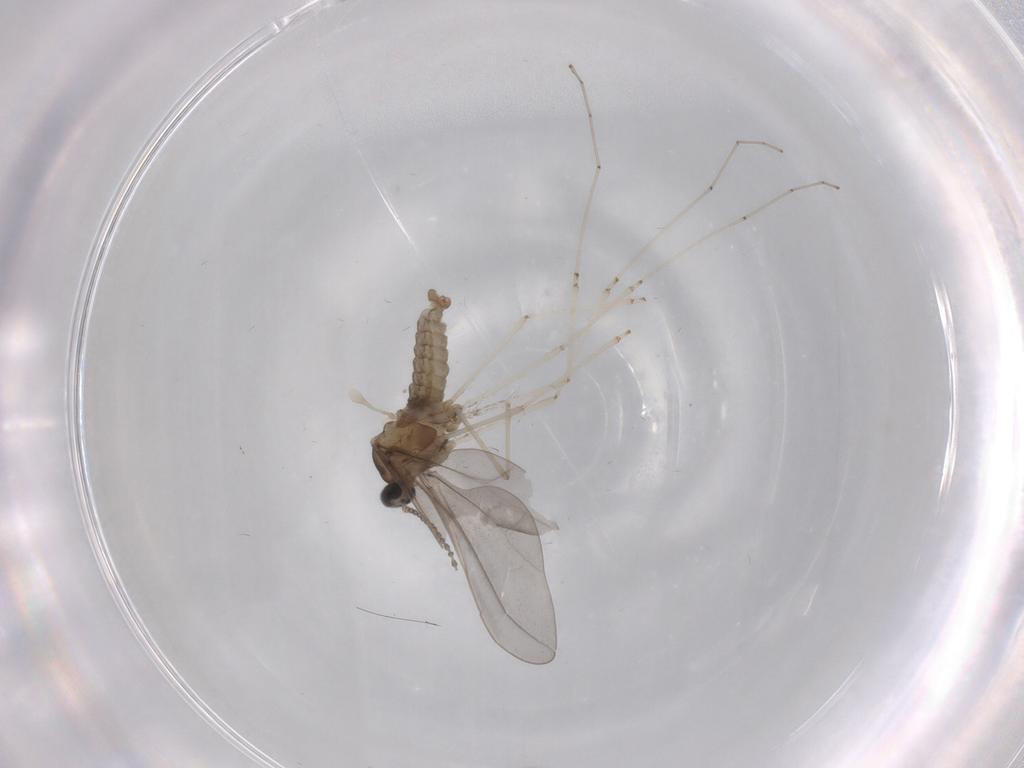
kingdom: Animalia
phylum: Arthropoda
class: Insecta
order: Diptera
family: Cecidomyiidae
